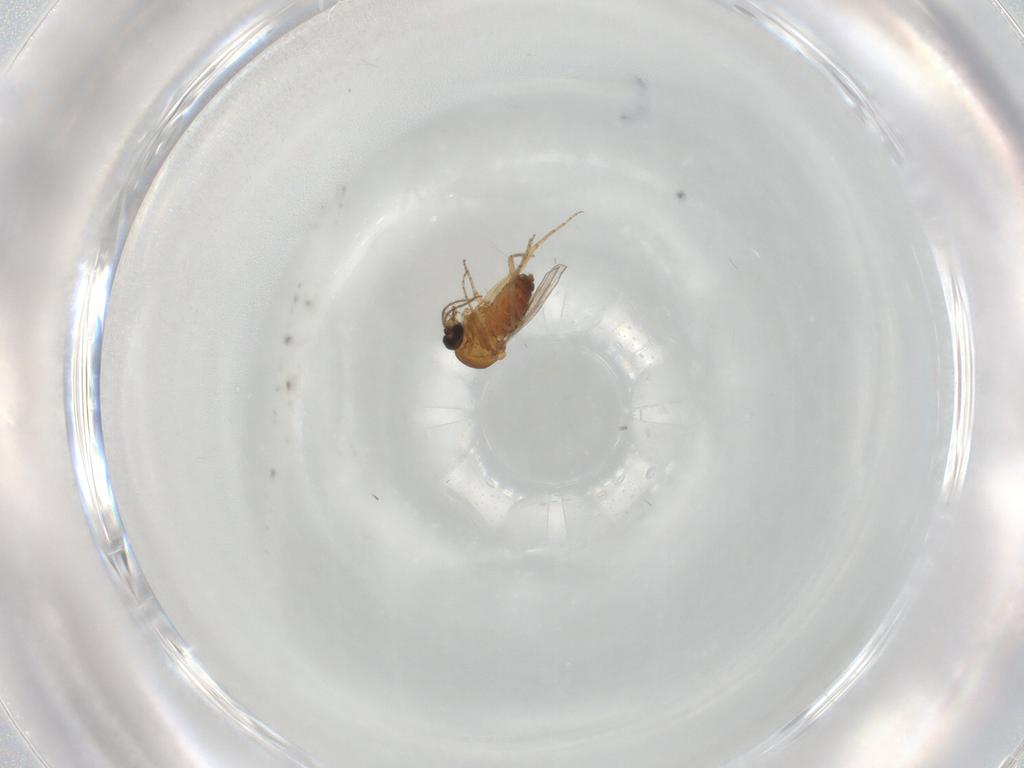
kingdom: Animalia
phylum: Arthropoda
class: Insecta
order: Diptera
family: Ceratopogonidae
